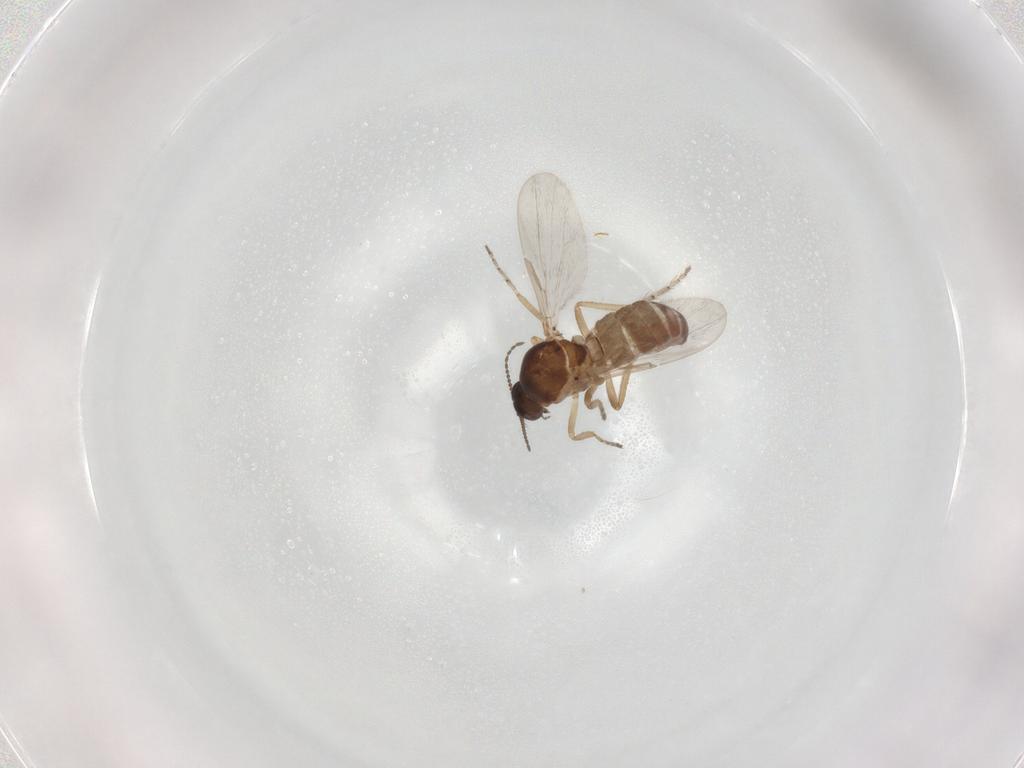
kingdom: Animalia
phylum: Arthropoda
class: Insecta
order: Diptera
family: Ceratopogonidae
